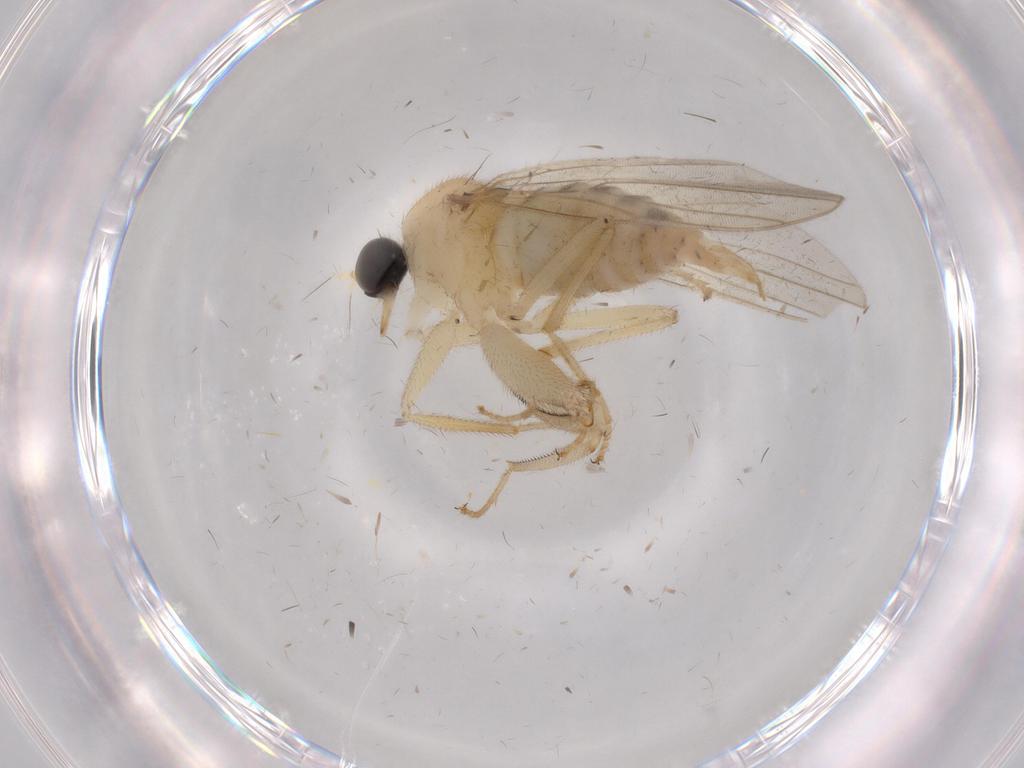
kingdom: Animalia
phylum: Arthropoda
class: Insecta
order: Diptera
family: Hybotidae
